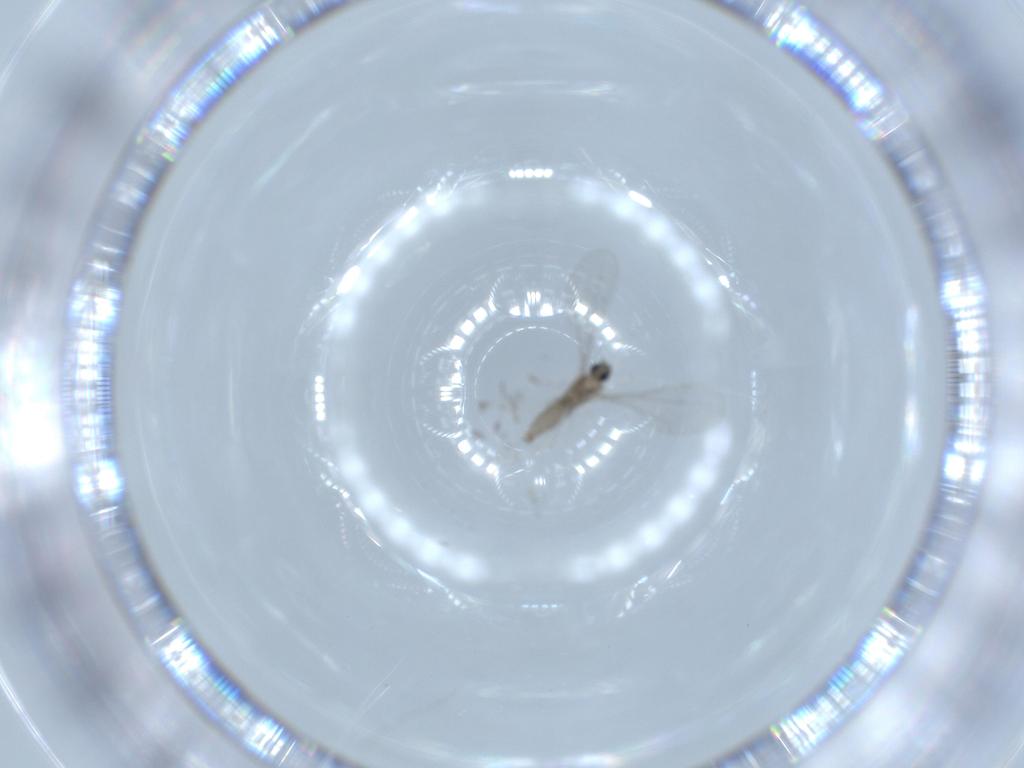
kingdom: Animalia
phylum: Arthropoda
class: Insecta
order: Diptera
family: Cecidomyiidae
